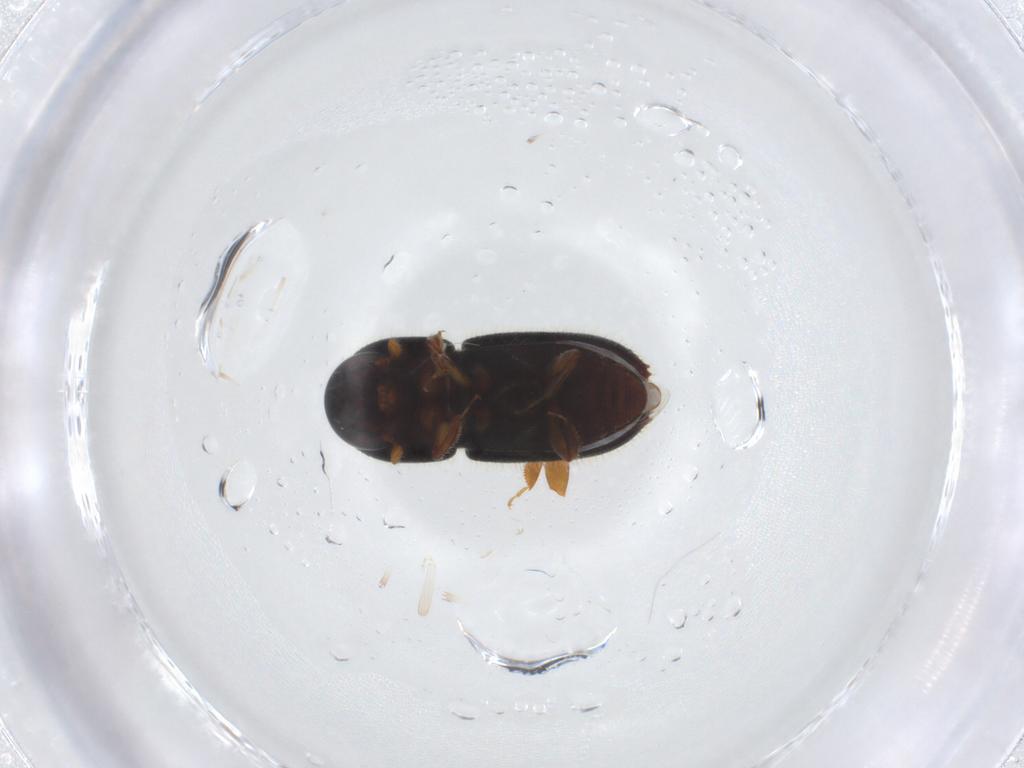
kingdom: Animalia
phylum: Arthropoda
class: Insecta
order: Coleoptera
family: Curculionidae
